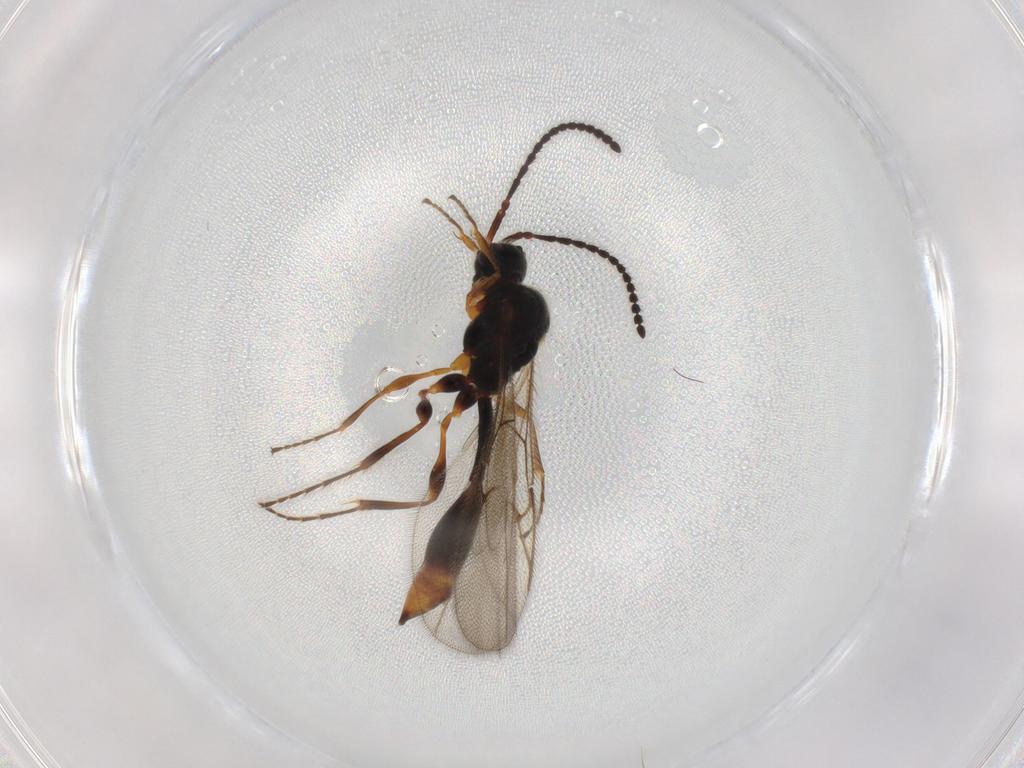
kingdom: Animalia
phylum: Arthropoda
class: Insecta
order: Hymenoptera
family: Diapriidae
